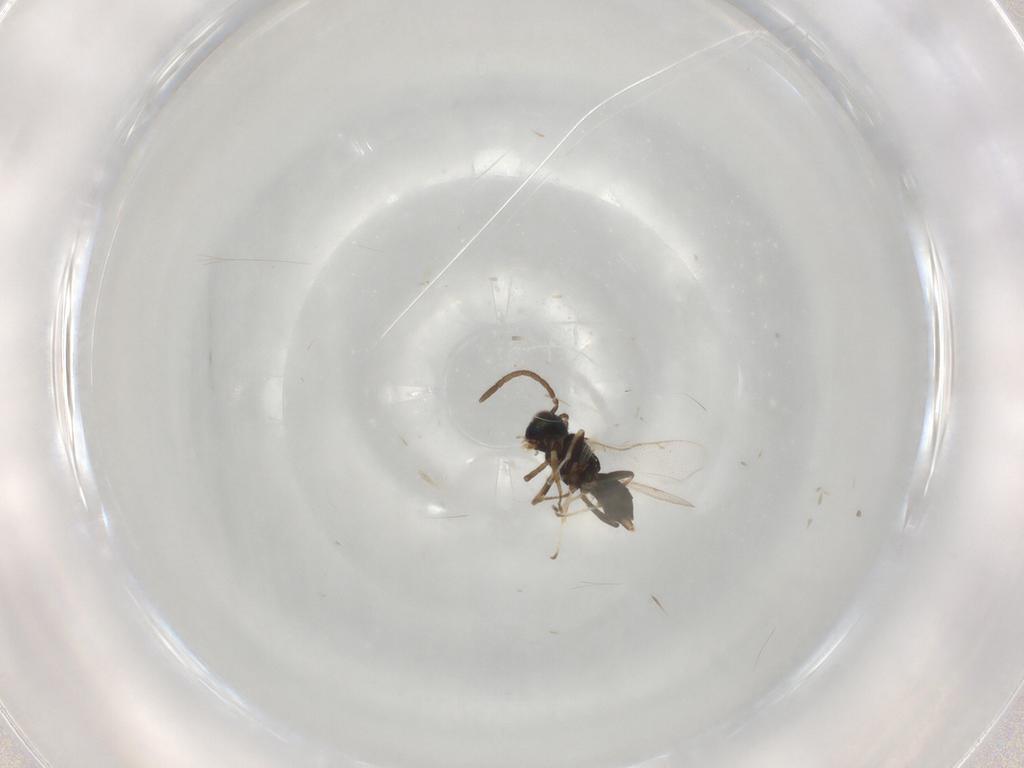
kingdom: Animalia
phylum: Arthropoda
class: Insecta
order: Hymenoptera
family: Eupelmidae
